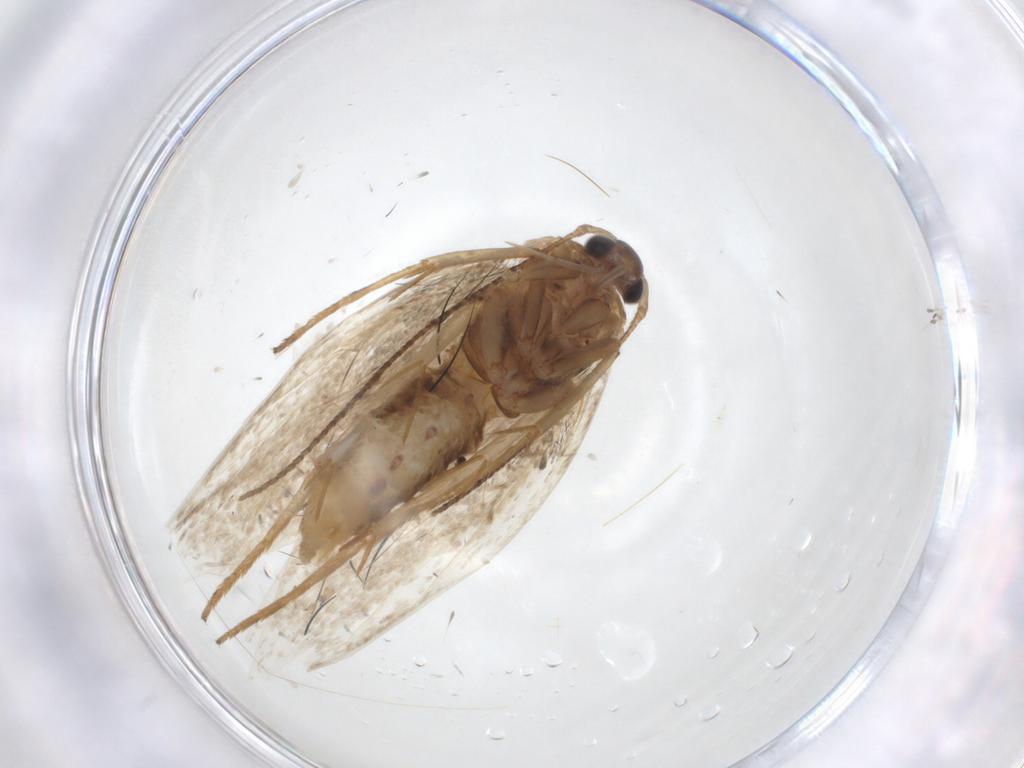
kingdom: Animalia
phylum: Arthropoda
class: Insecta
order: Lepidoptera
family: Erebidae
